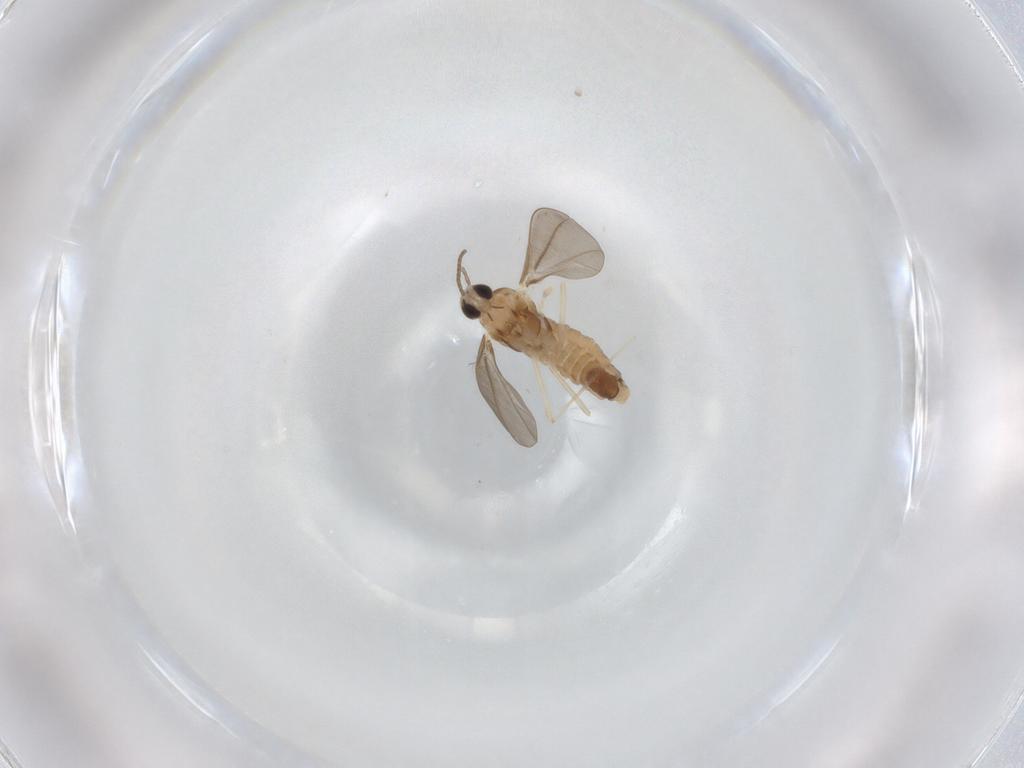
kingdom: Animalia
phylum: Arthropoda
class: Insecta
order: Diptera
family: Cecidomyiidae
